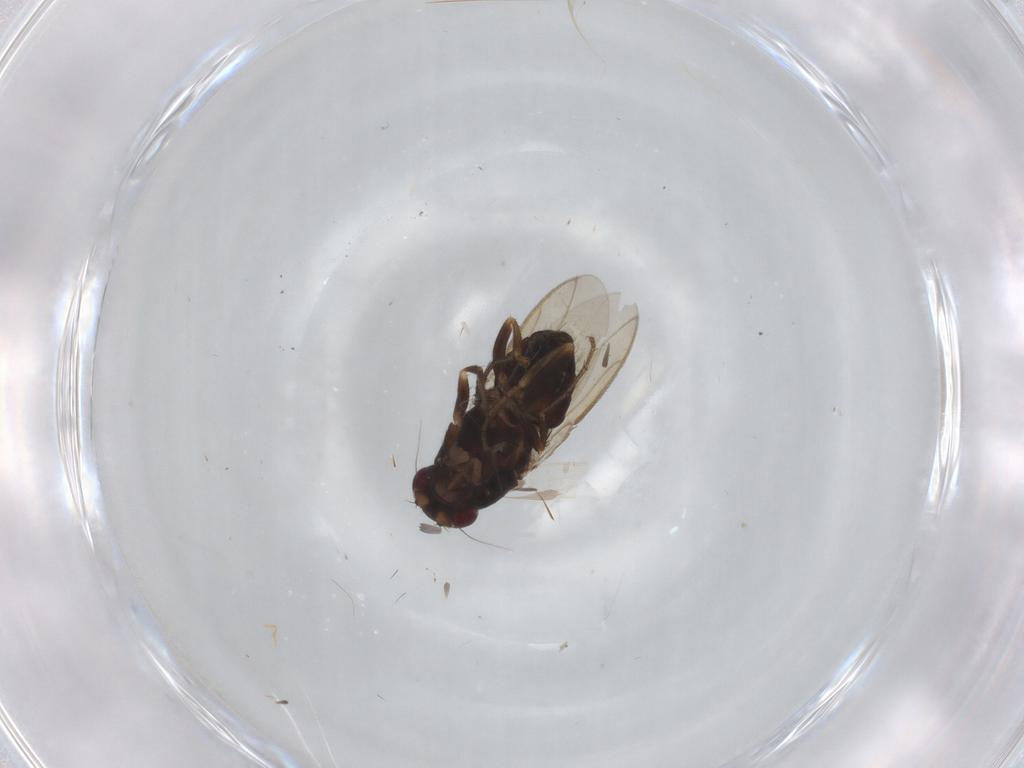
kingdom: Animalia
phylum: Arthropoda
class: Insecta
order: Diptera
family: Sphaeroceridae
